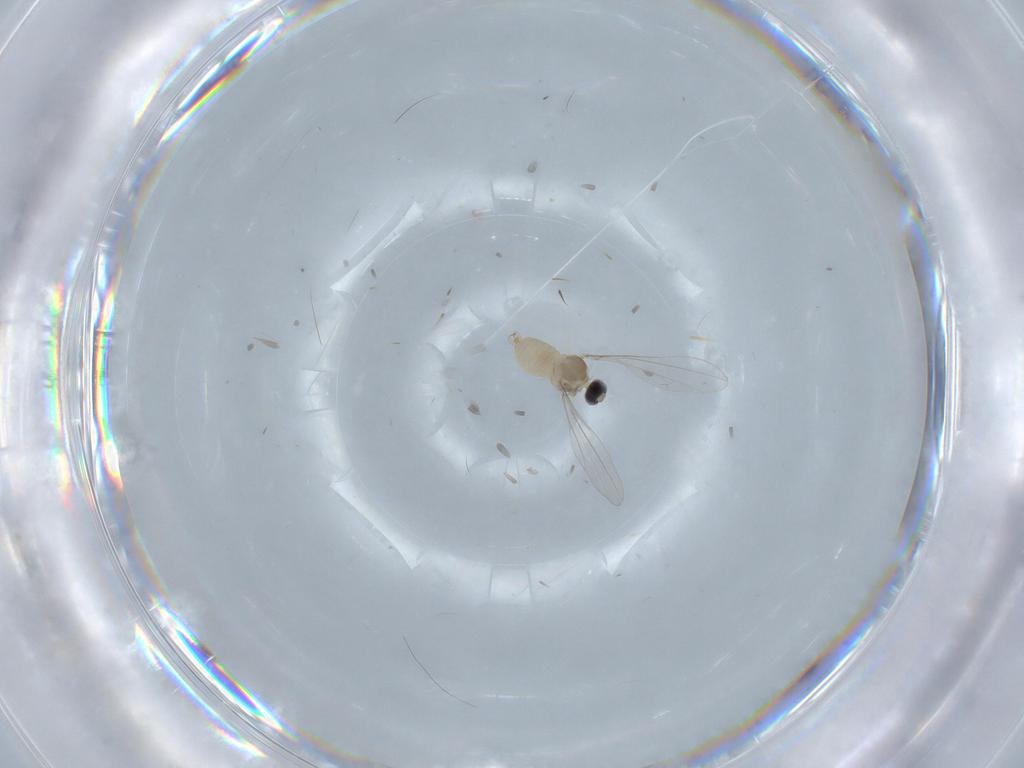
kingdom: Animalia
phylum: Arthropoda
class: Insecta
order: Diptera
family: Cecidomyiidae
